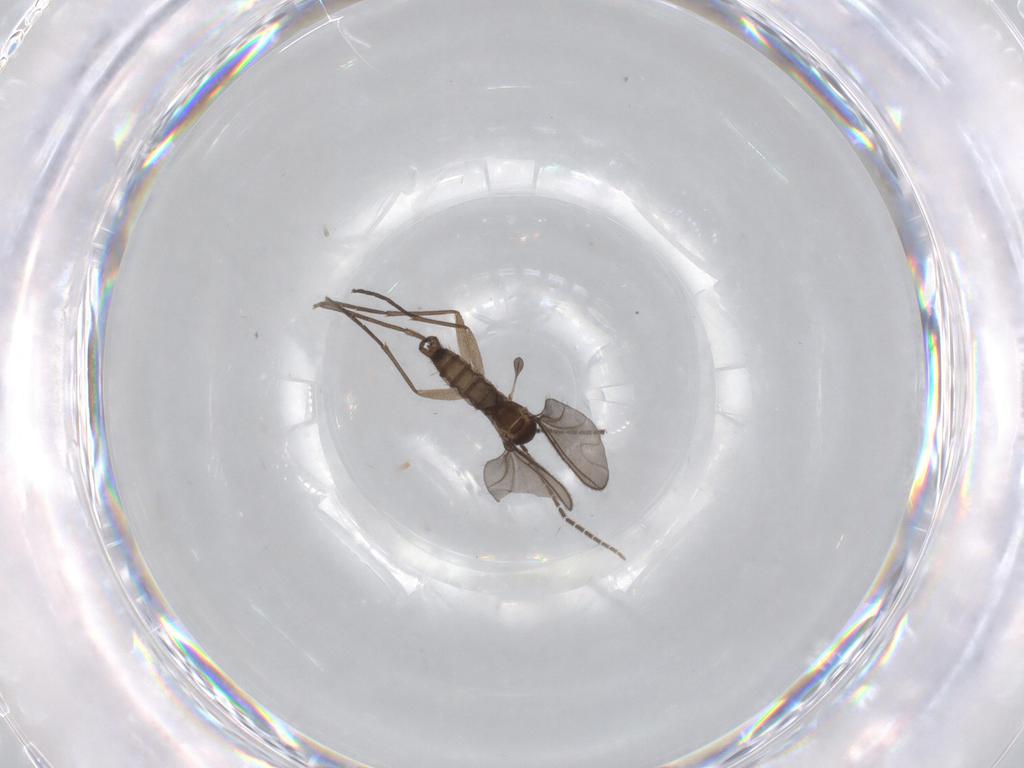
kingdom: Animalia
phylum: Arthropoda
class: Insecta
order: Diptera
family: Sciaridae
